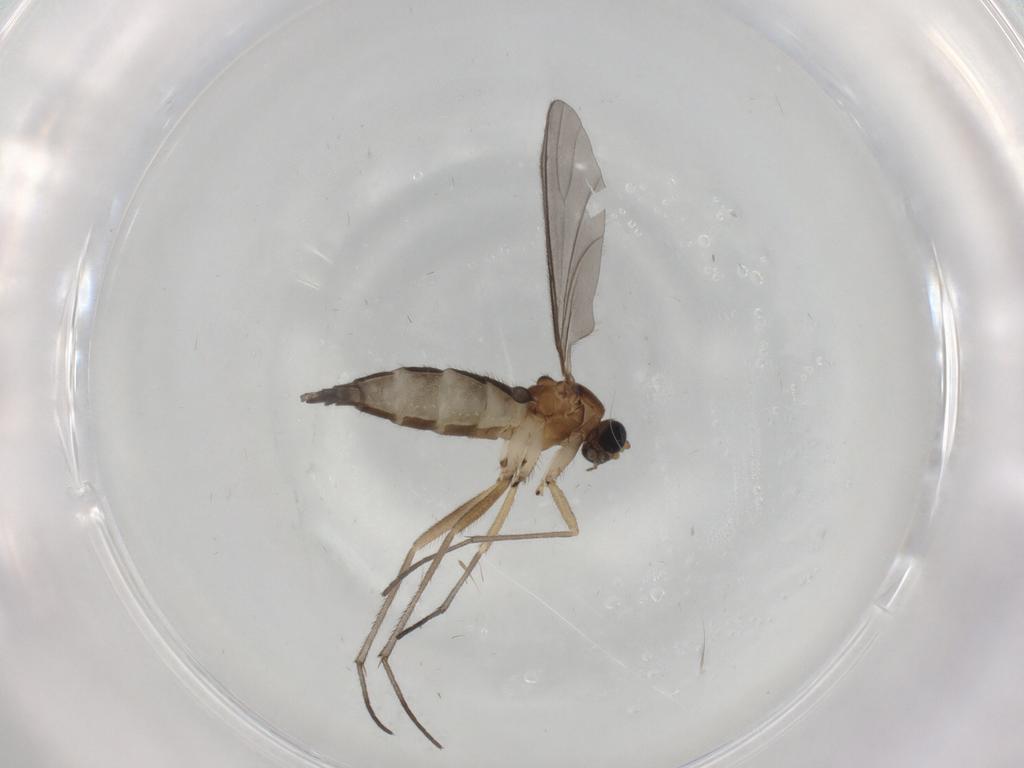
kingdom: Animalia
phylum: Arthropoda
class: Insecta
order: Diptera
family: Sciaridae
